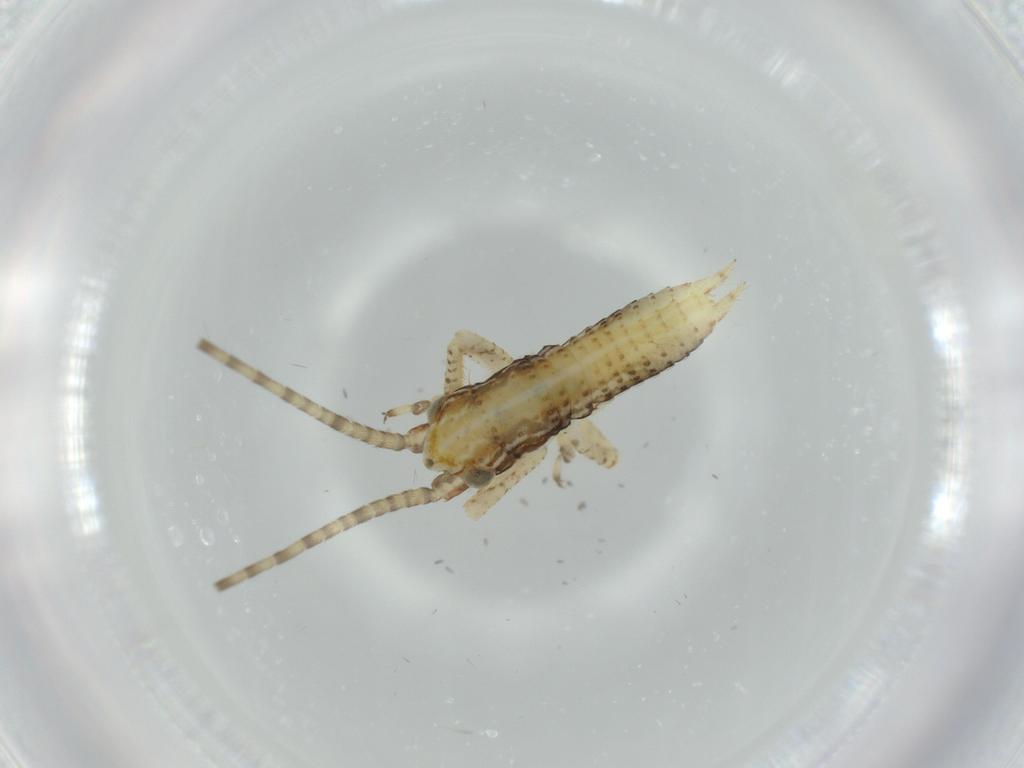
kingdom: Animalia
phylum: Arthropoda
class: Insecta
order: Orthoptera
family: Gryllidae
